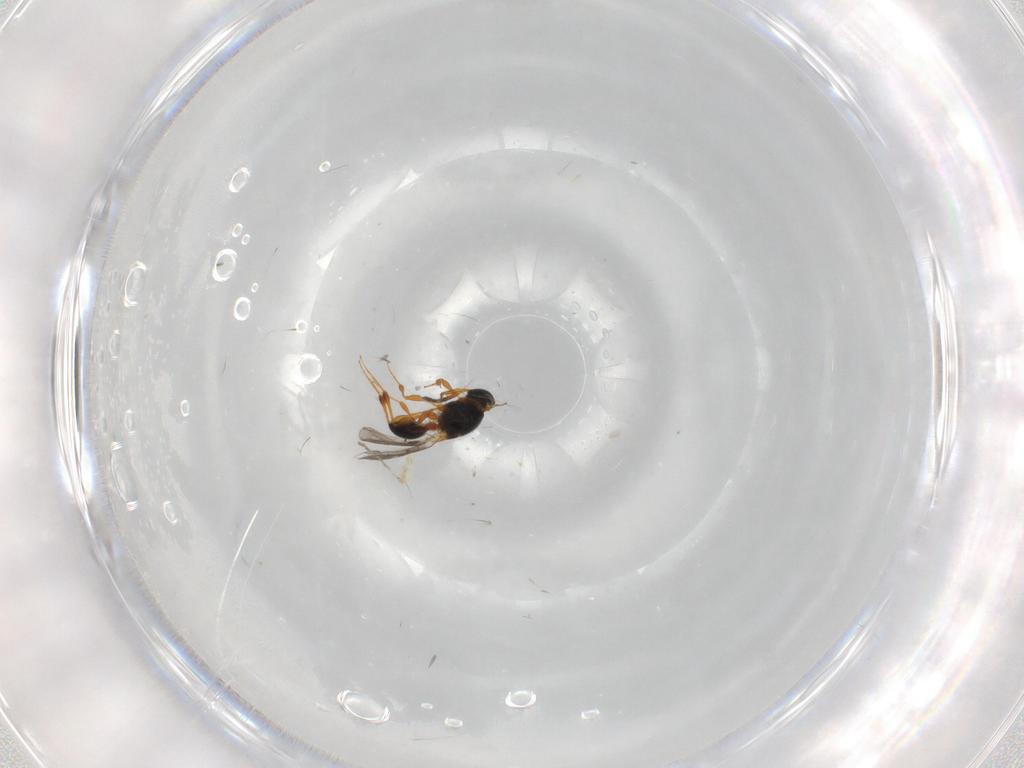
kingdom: Animalia
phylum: Arthropoda
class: Insecta
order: Hymenoptera
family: Platygastridae
